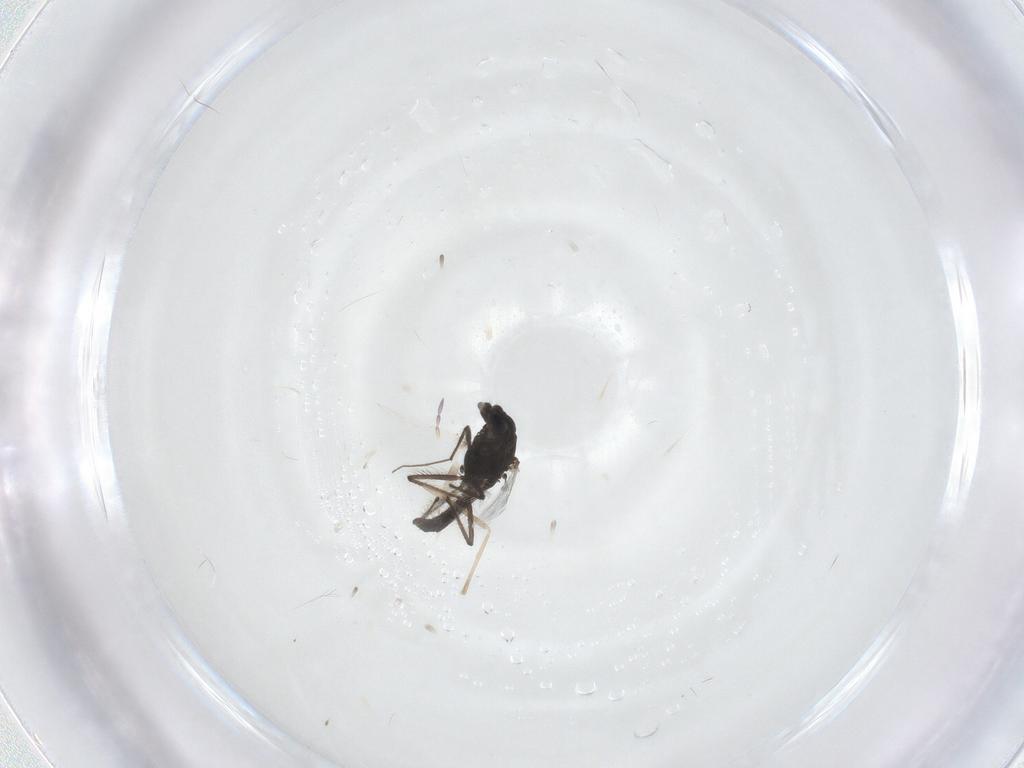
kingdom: Animalia
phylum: Arthropoda
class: Insecta
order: Diptera
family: Chironomidae
